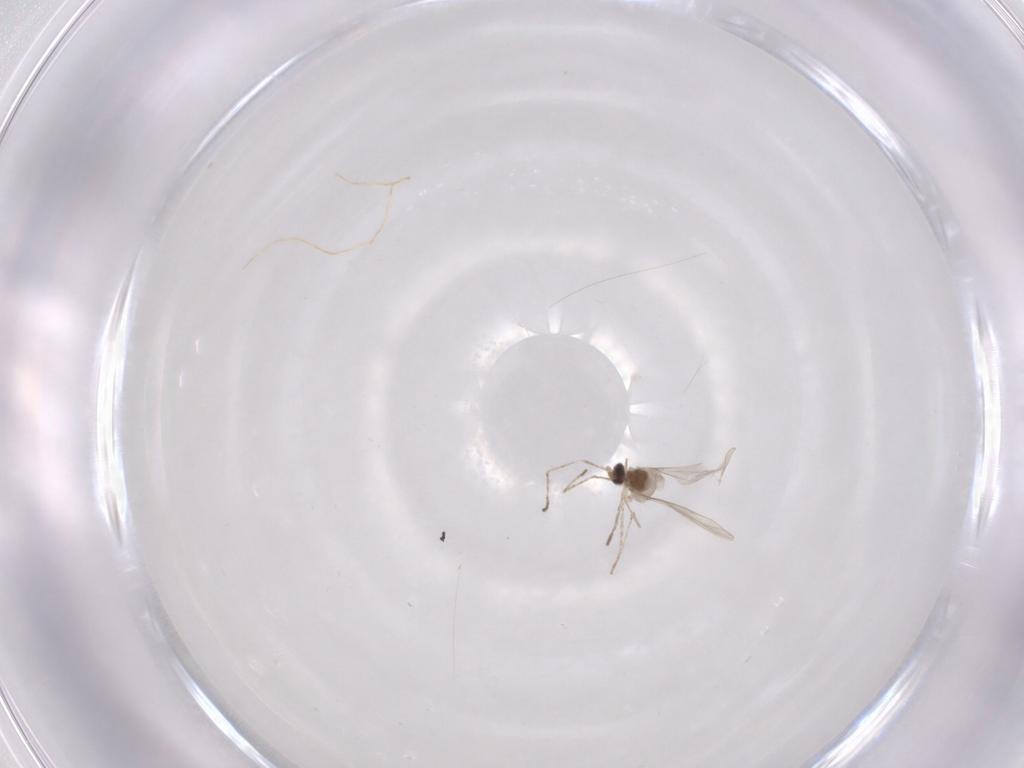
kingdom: Animalia
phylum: Arthropoda
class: Insecta
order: Diptera
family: Cecidomyiidae
